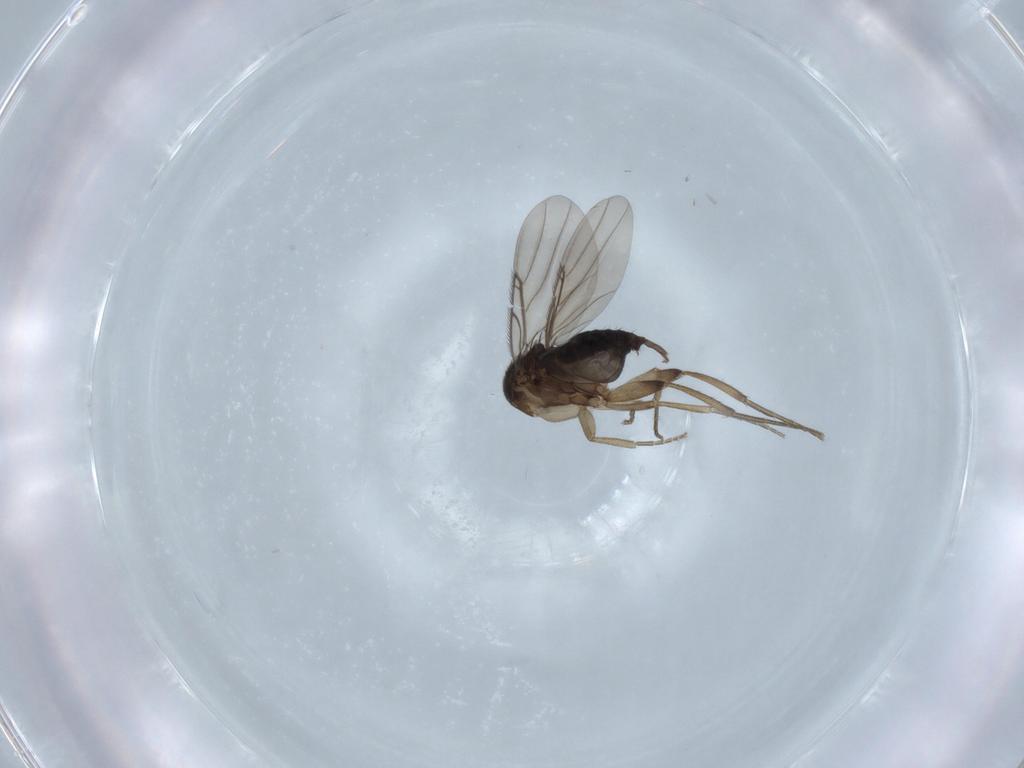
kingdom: Animalia
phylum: Arthropoda
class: Insecta
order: Diptera
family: Phoridae
